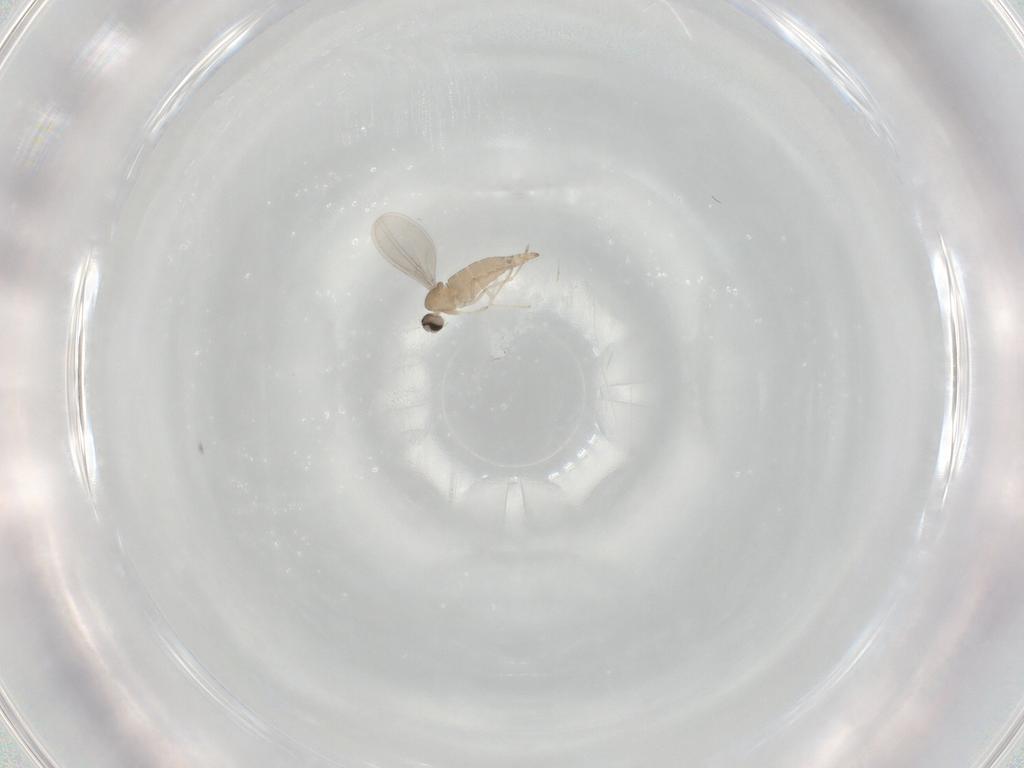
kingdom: Animalia
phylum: Arthropoda
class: Insecta
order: Diptera
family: Cecidomyiidae
